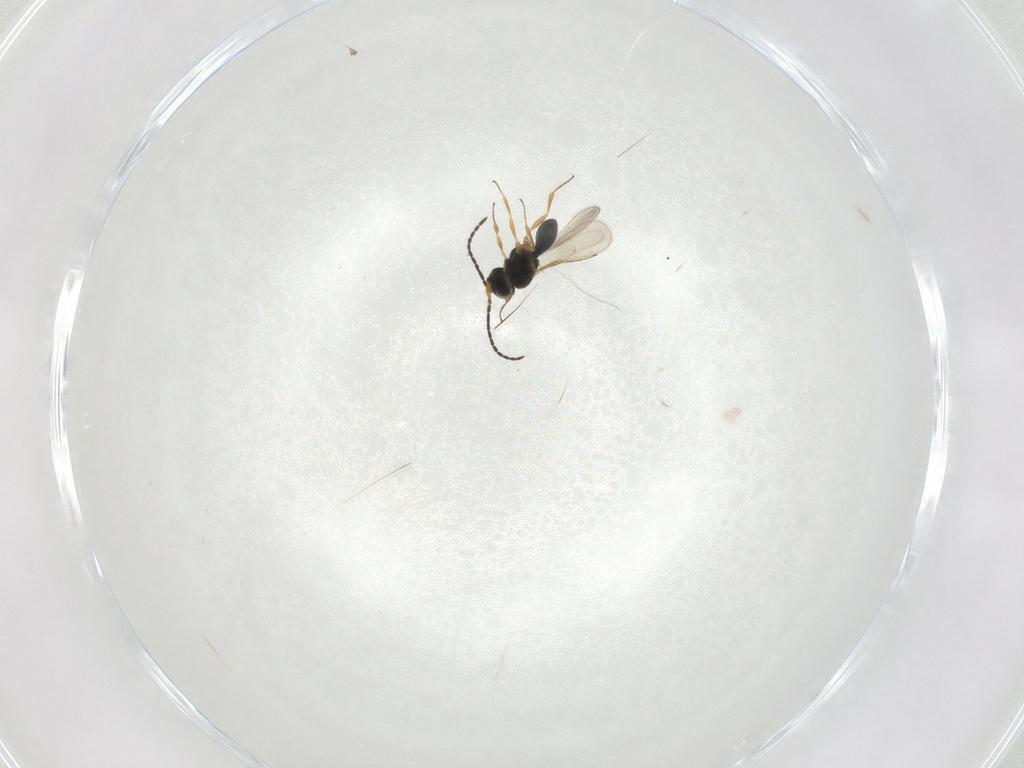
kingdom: Animalia
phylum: Arthropoda
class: Insecta
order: Hymenoptera
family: Scelionidae
